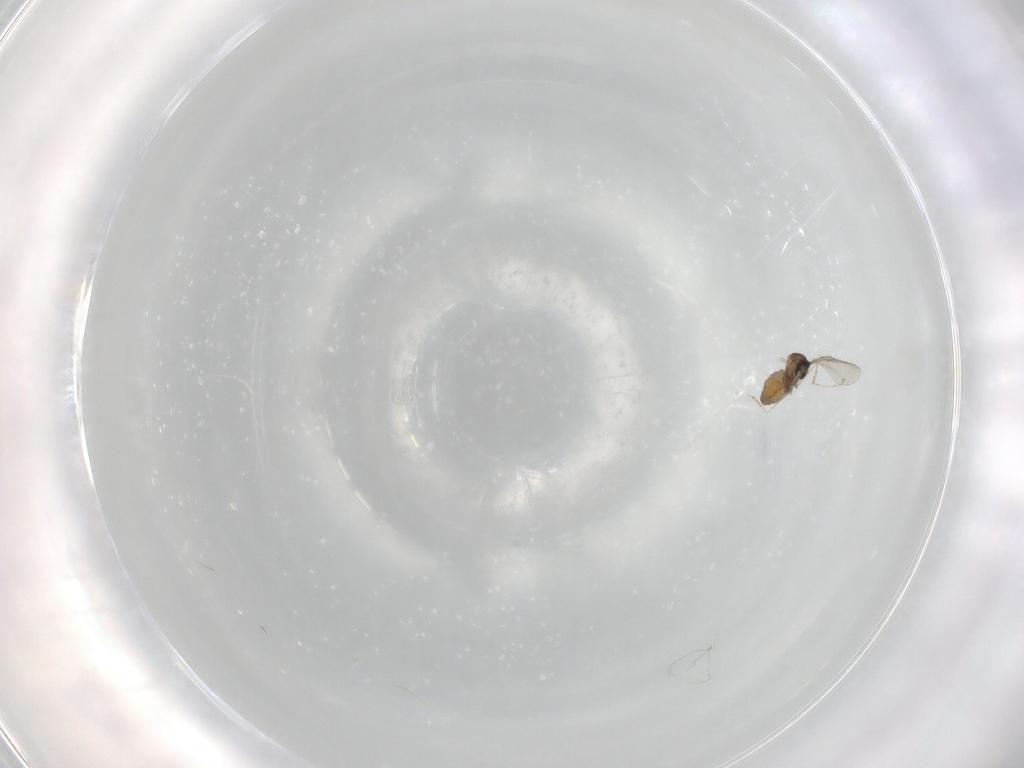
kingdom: Animalia
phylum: Arthropoda
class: Insecta
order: Diptera
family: Cecidomyiidae
